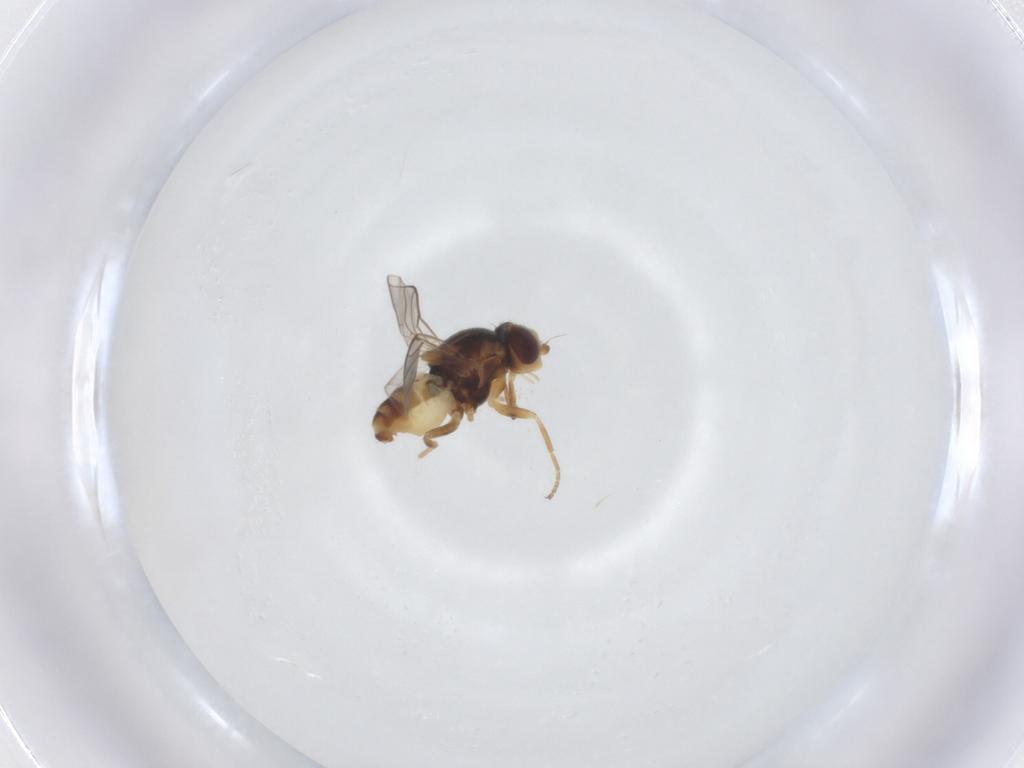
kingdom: Animalia
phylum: Arthropoda
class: Insecta
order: Diptera
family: Chloropidae
